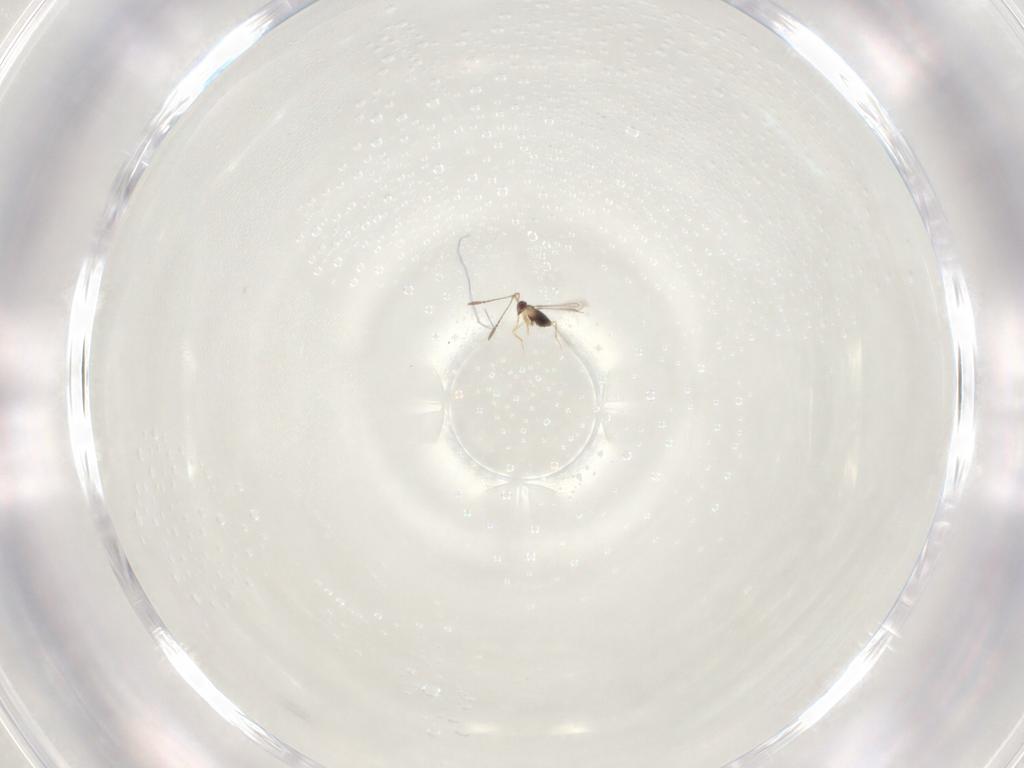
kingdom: Animalia
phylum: Arthropoda
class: Insecta
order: Hymenoptera
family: Mymaridae
